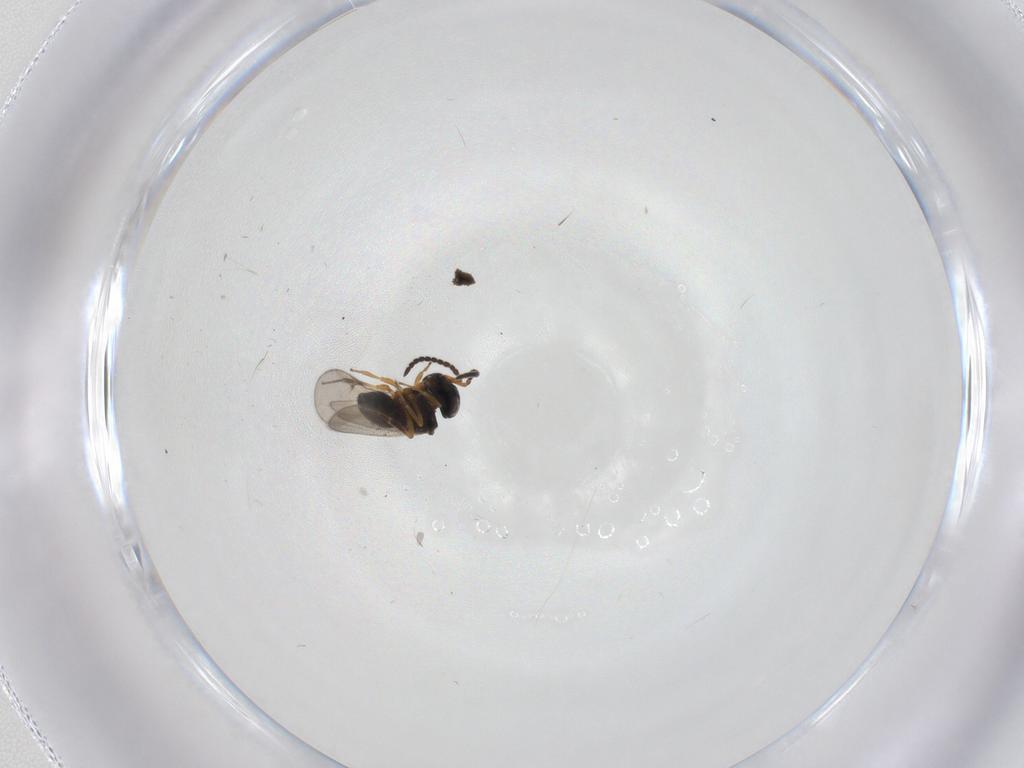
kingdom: Animalia
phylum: Arthropoda
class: Insecta
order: Hymenoptera
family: Scelionidae
